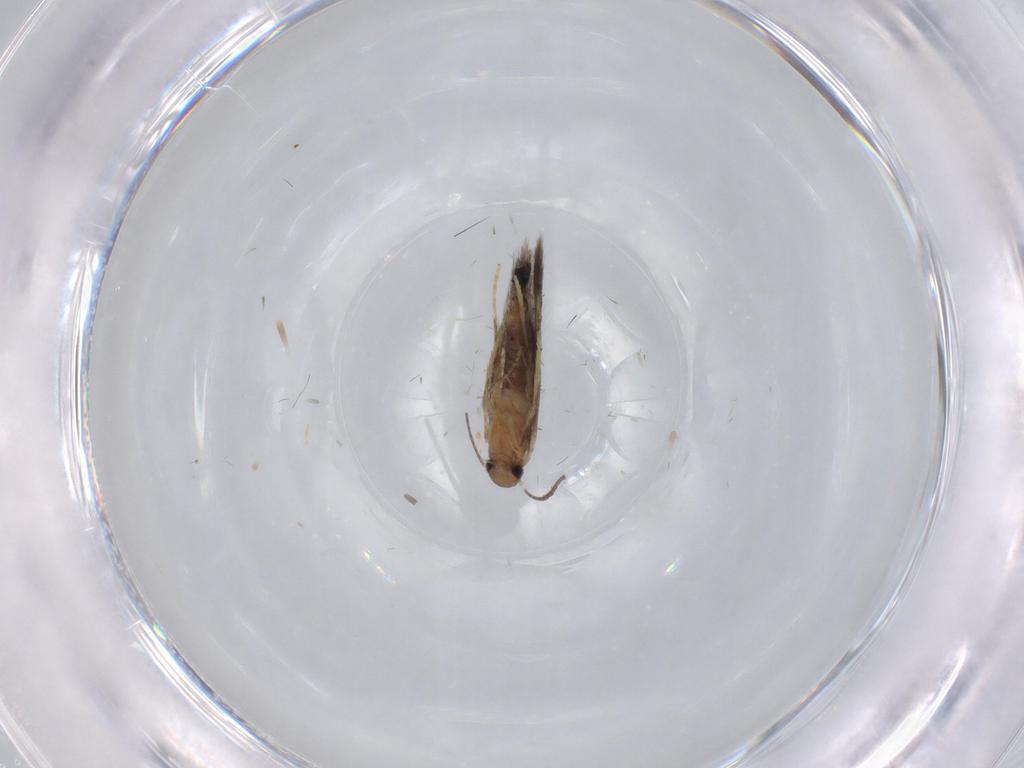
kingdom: Animalia
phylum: Arthropoda
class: Insecta
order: Lepidoptera
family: Heliozelidae
